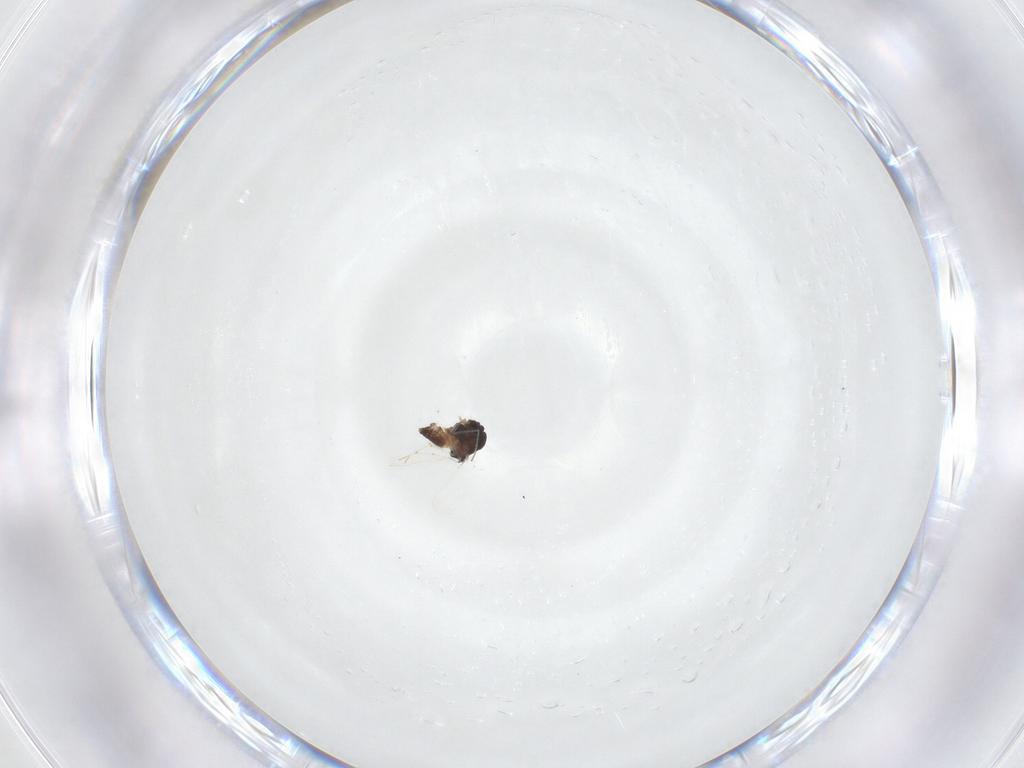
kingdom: Animalia
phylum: Arthropoda
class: Insecta
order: Diptera
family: Chironomidae
